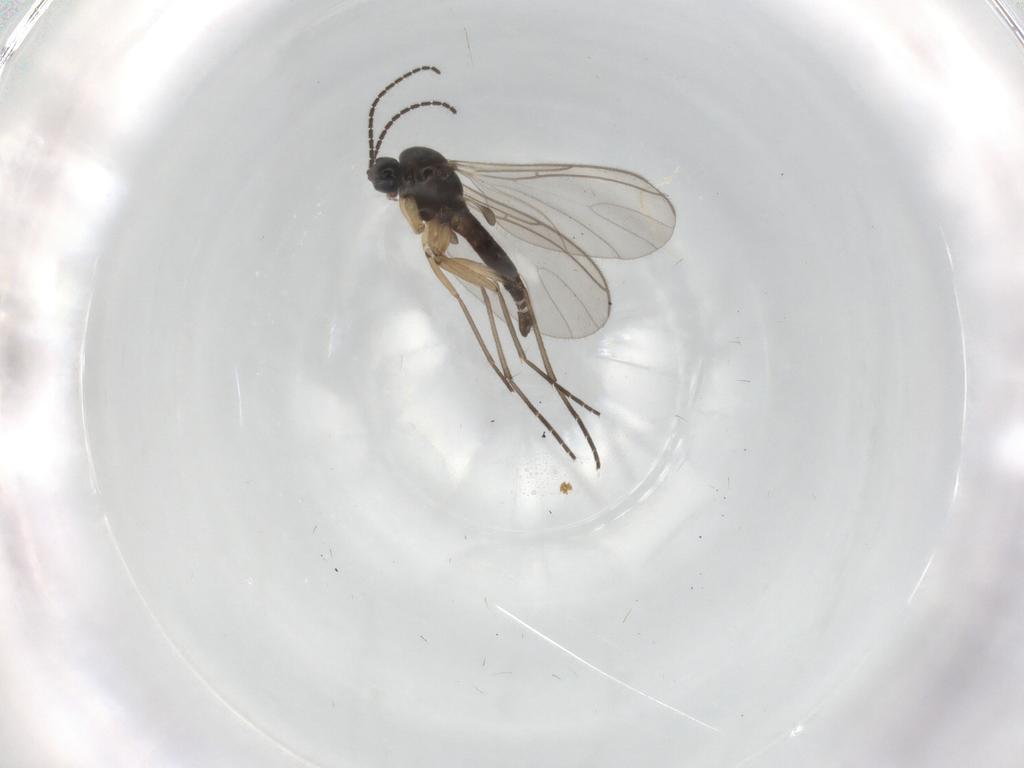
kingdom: Animalia
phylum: Arthropoda
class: Insecta
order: Diptera
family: Sciaridae
